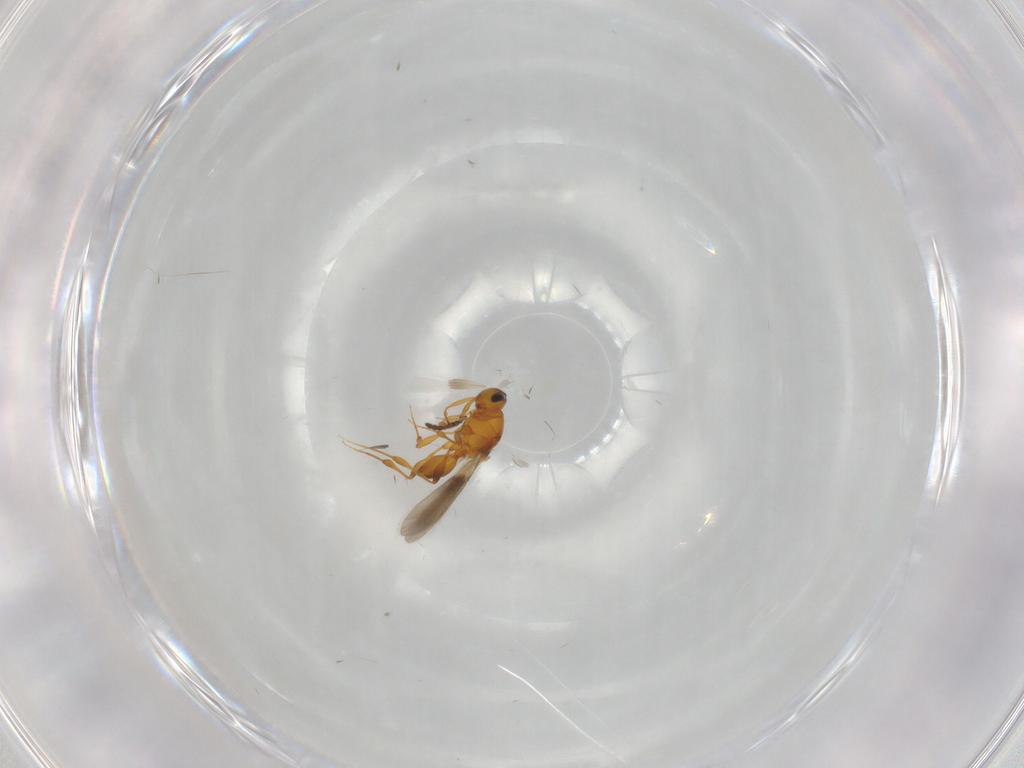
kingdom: Animalia
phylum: Arthropoda
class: Insecta
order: Hymenoptera
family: Platygastridae
